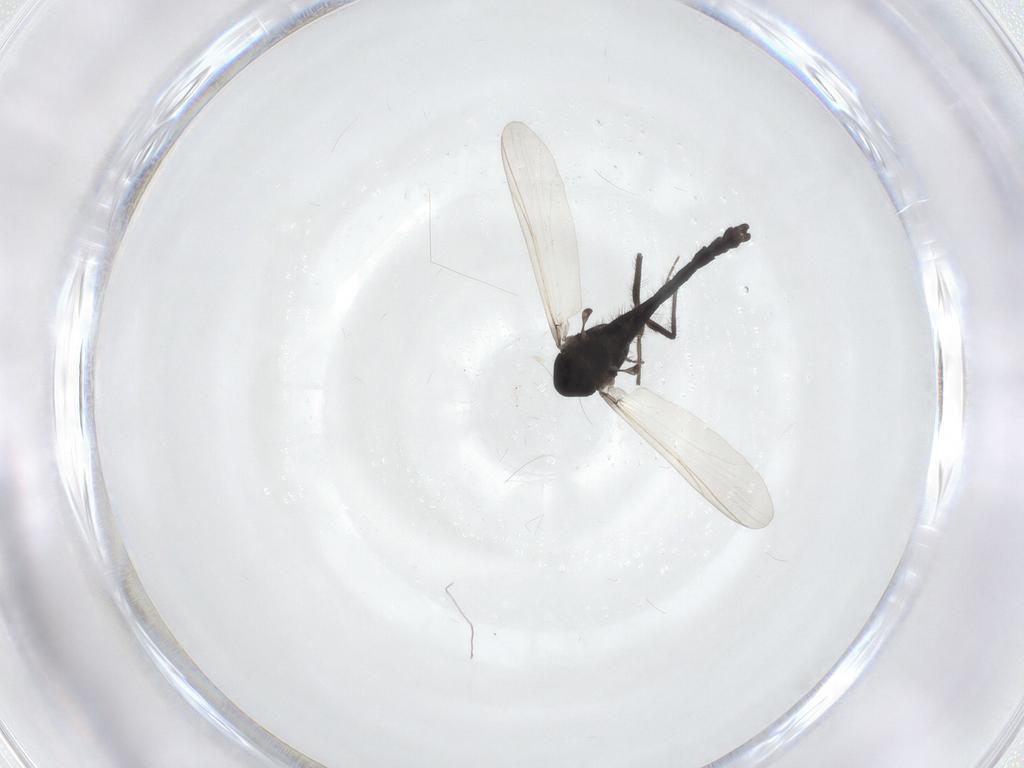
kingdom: Animalia
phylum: Arthropoda
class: Insecta
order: Diptera
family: Chironomidae
